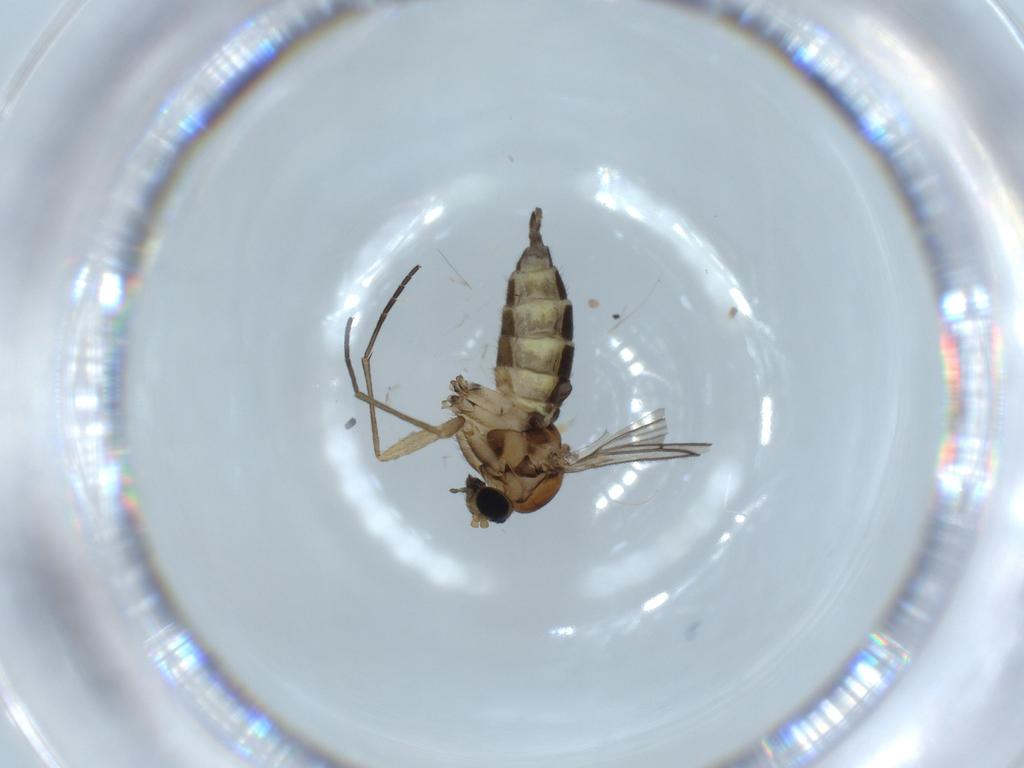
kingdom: Animalia
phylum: Arthropoda
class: Insecta
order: Diptera
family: Sciaridae
